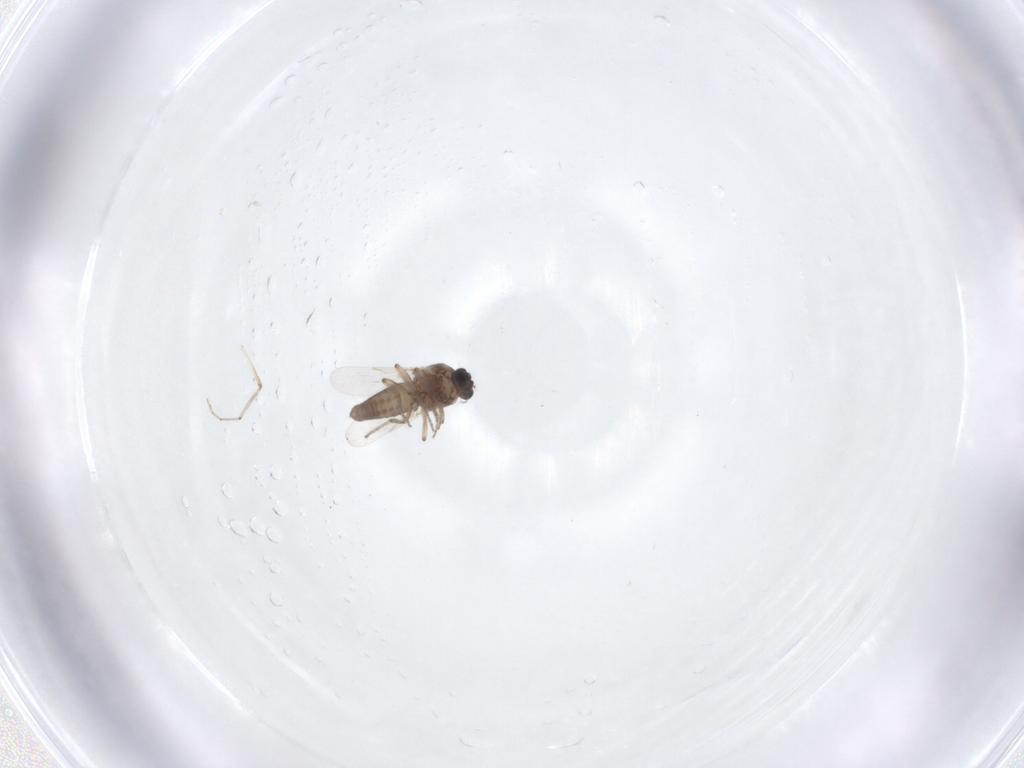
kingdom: Animalia
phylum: Arthropoda
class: Insecta
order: Diptera
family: Ceratopogonidae
